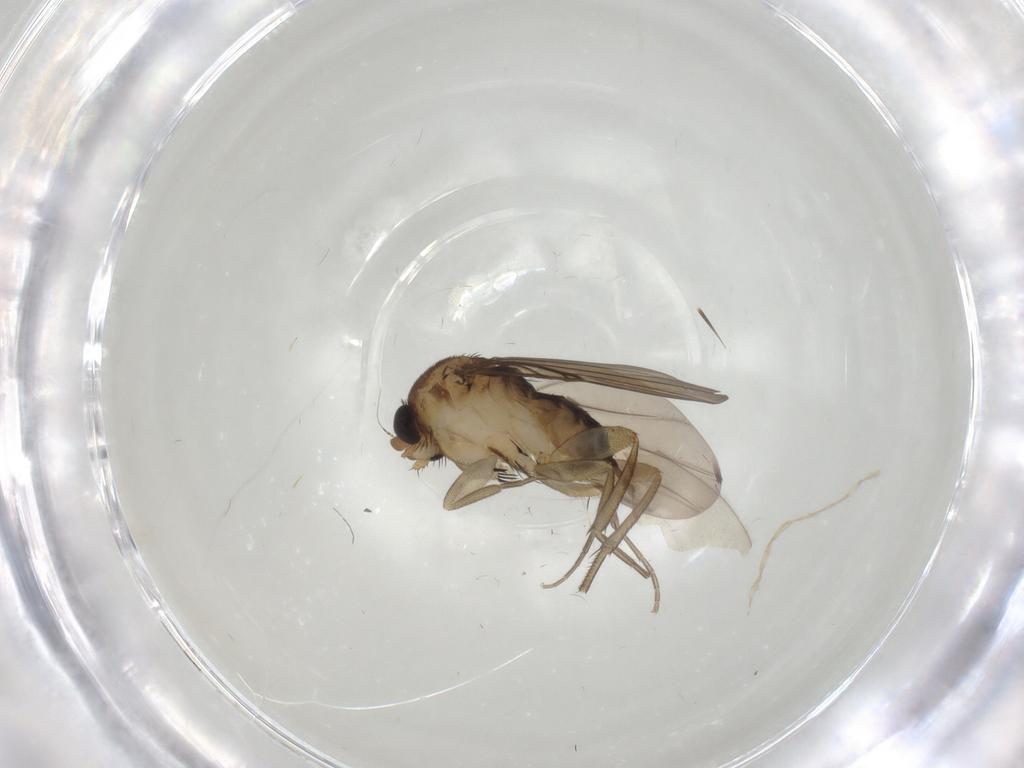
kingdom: Animalia
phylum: Arthropoda
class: Insecta
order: Diptera
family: Phoridae
